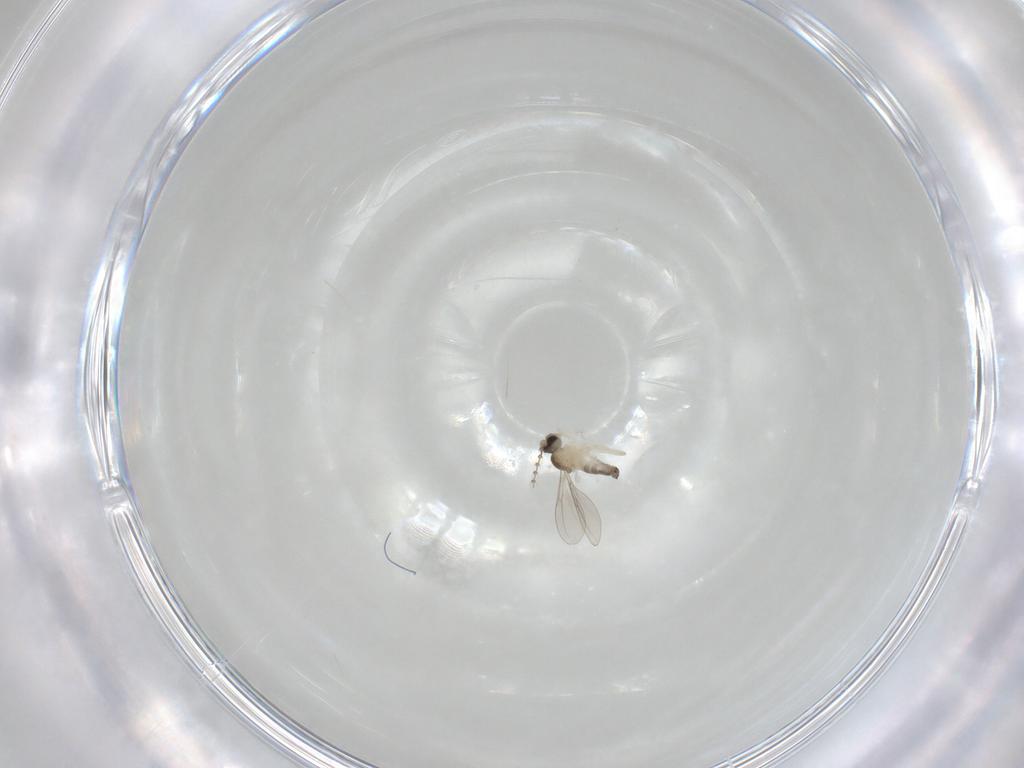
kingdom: Animalia
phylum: Arthropoda
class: Insecta
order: Diptera
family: Cecidomyiidae
